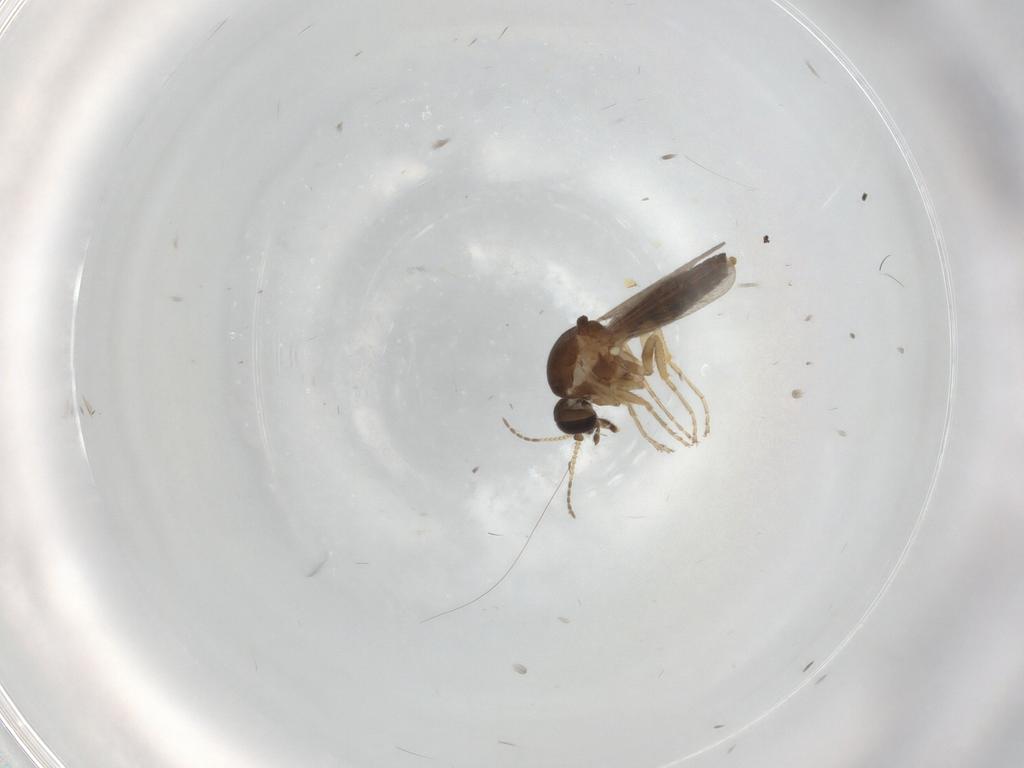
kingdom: Animalia
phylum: Arthropoda
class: Insecta
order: Diptera
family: Ceratopogonidae
